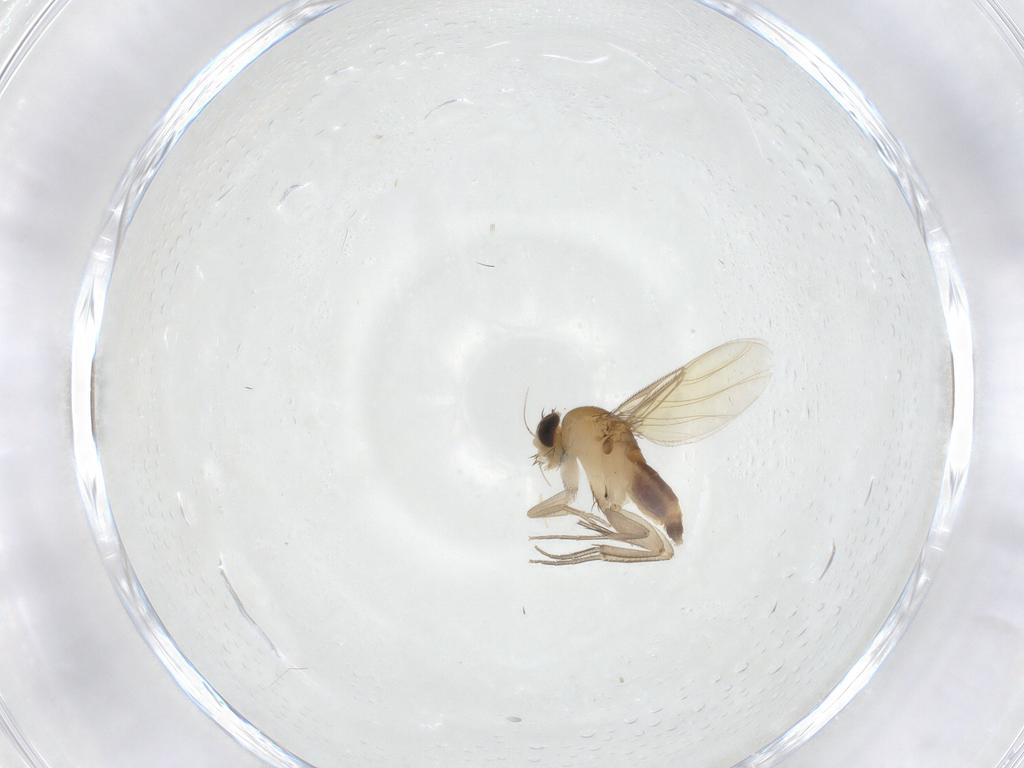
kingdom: Animalia
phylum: Arthropoda
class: Insecta
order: Diptera
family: Phoridae
